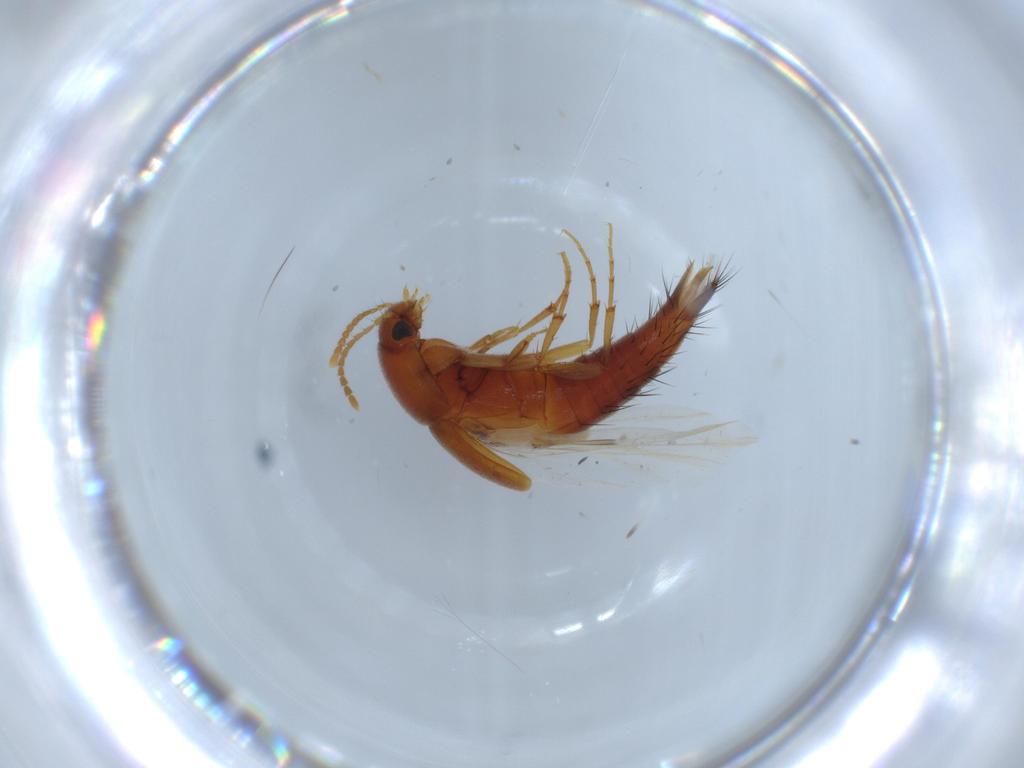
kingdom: Animalia
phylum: Arthropoda
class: Insecta
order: Coleoptera
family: Staphylinidae
